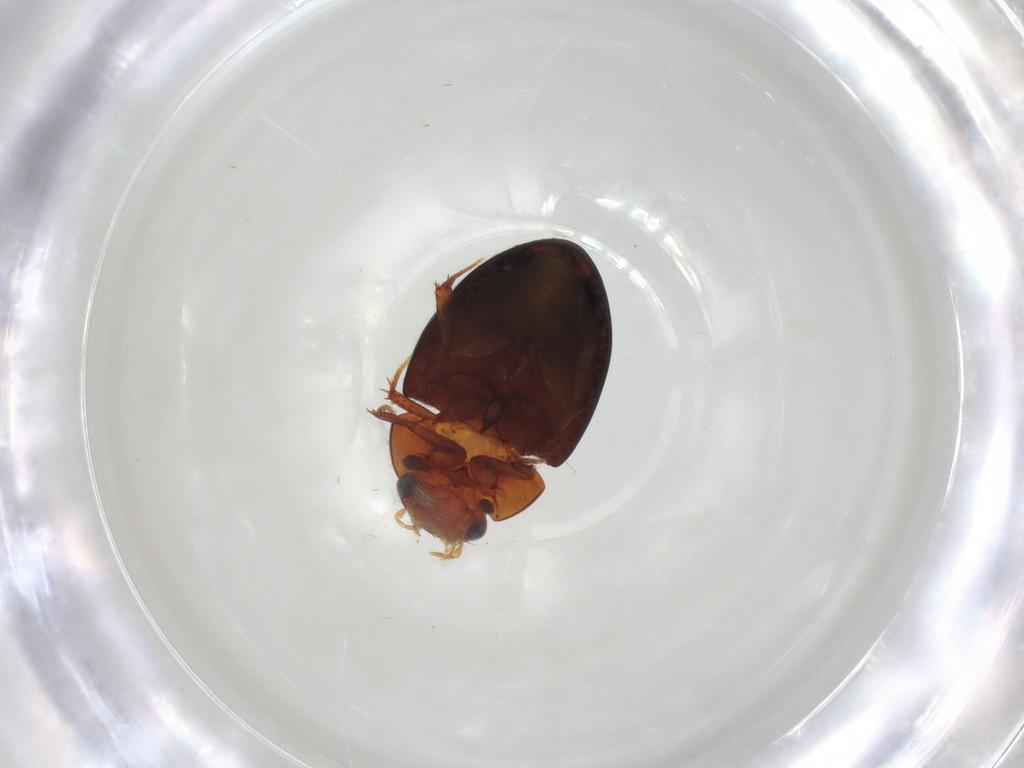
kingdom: Animalia
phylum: Arthropoda
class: Insecta
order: Coleoptera
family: Hydrophilidae
